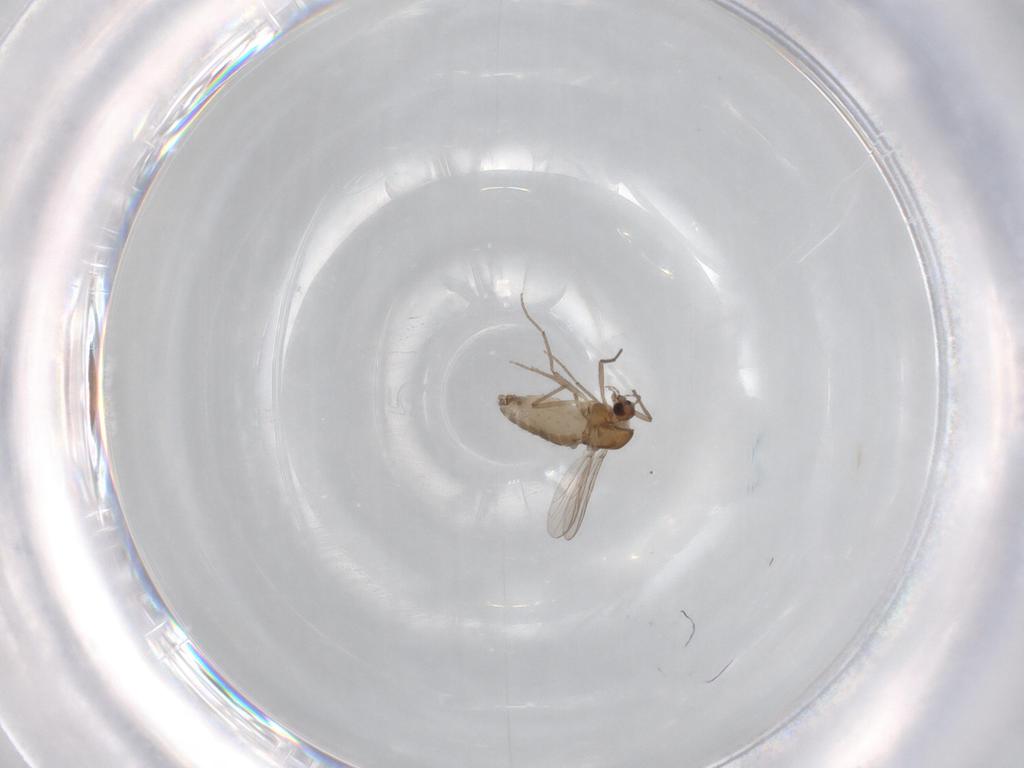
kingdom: Animalia
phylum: Arthropoda
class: Insecta
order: Diptera
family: Chironomidae
